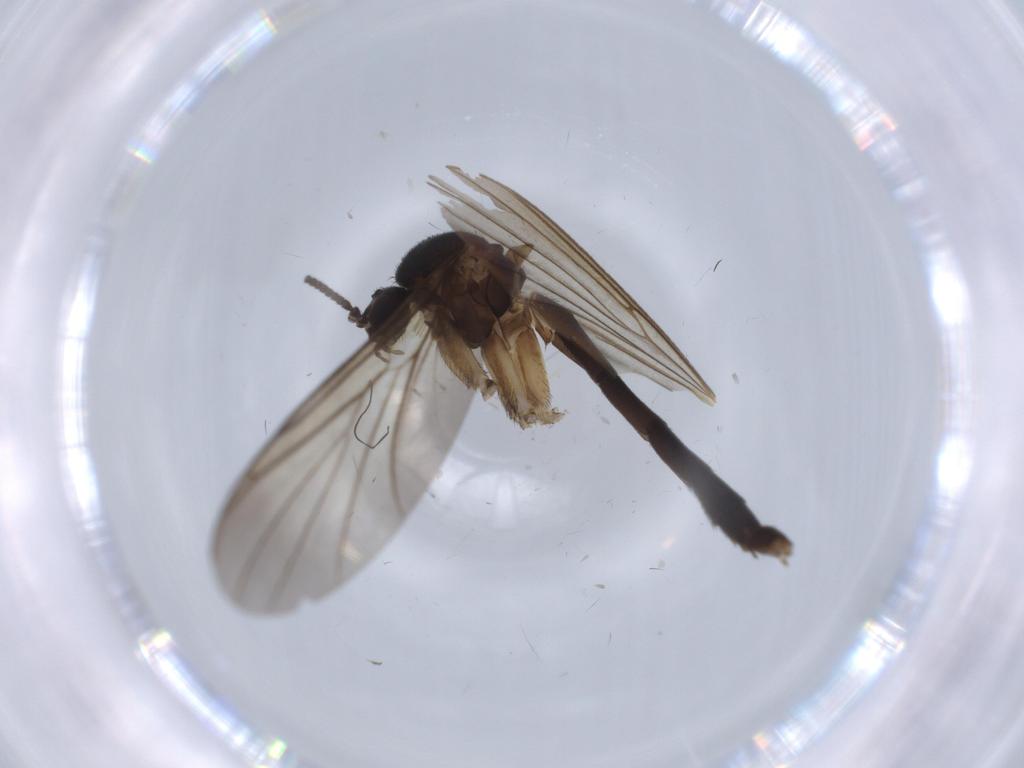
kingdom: Animalia
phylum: Arthropoda
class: Insecta
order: Diptera
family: Keroplatidae
